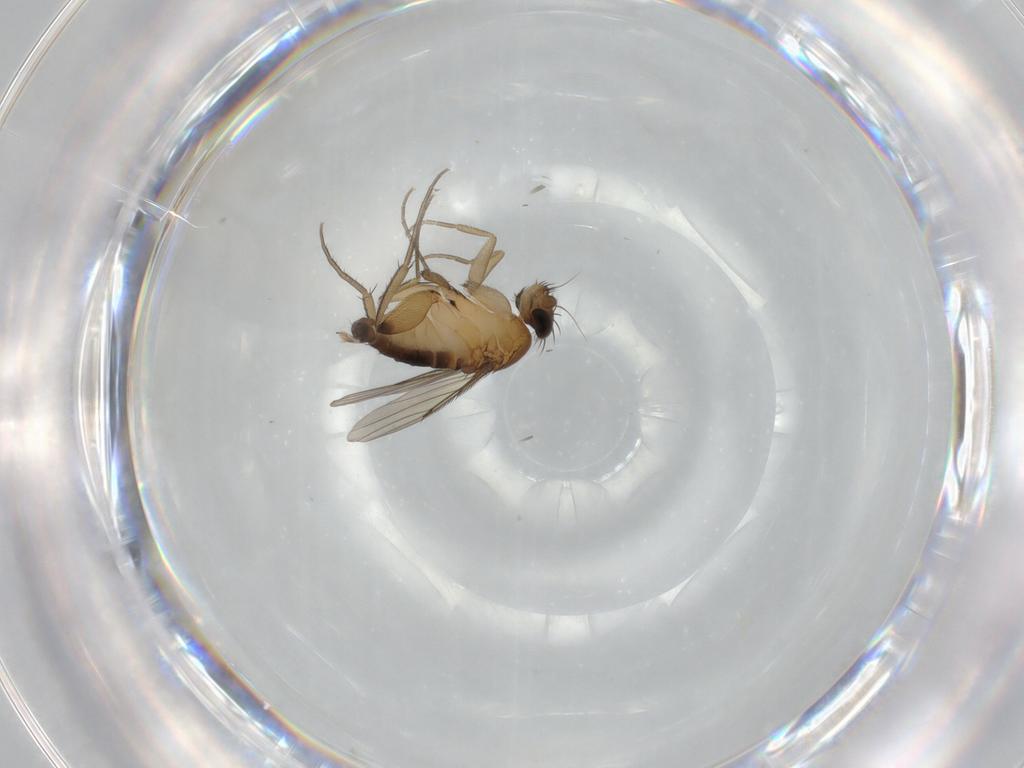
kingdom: Animalia
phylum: Arthropoda
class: Insecta
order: Diptera
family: Phoridae
